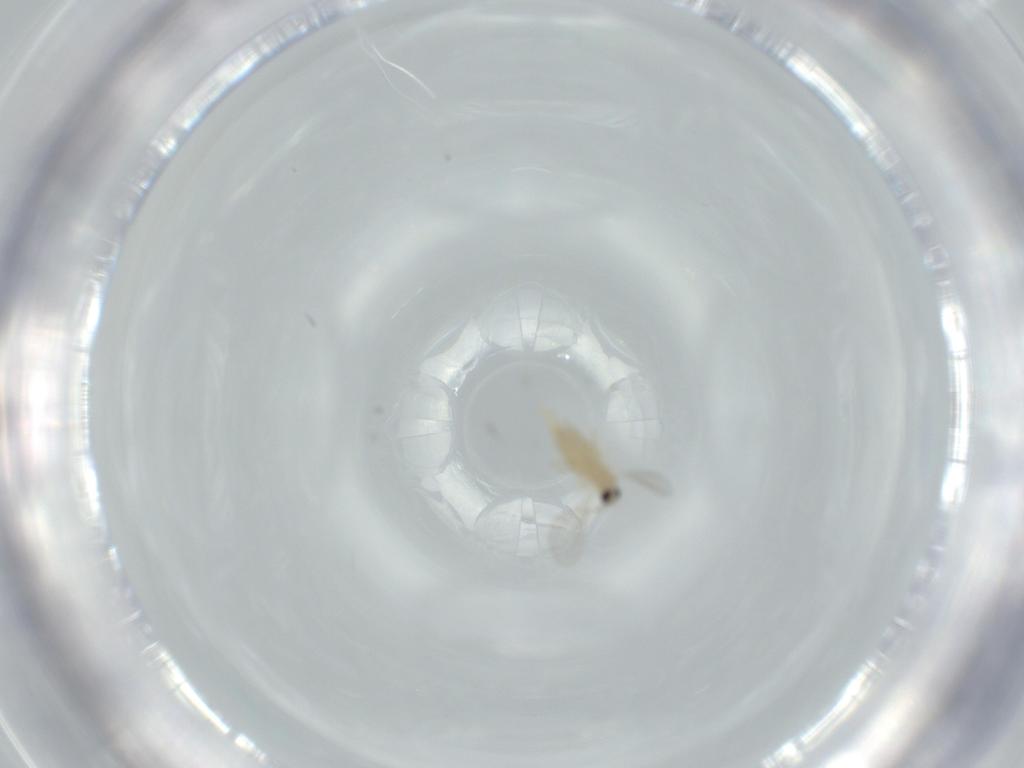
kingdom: Animalia
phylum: Arthropoda
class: Insecta
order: Diptera
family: Cecidomyiidae
